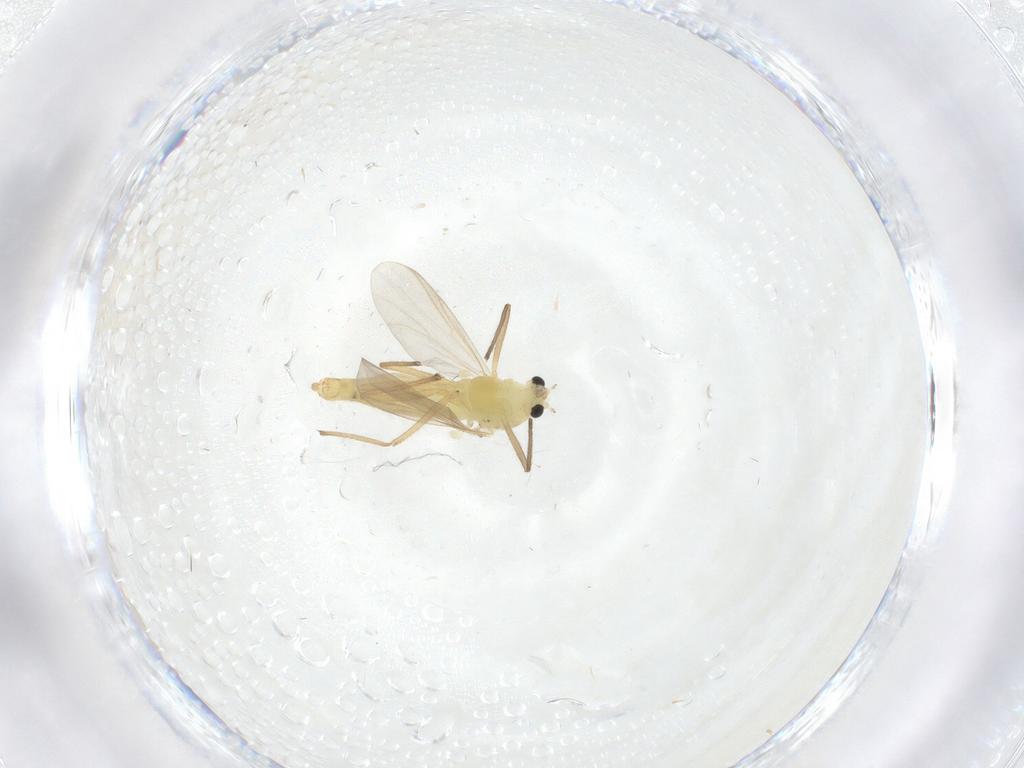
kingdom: Animalia
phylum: Arthropoda
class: Insecta
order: Diptera
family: Chironomidae
